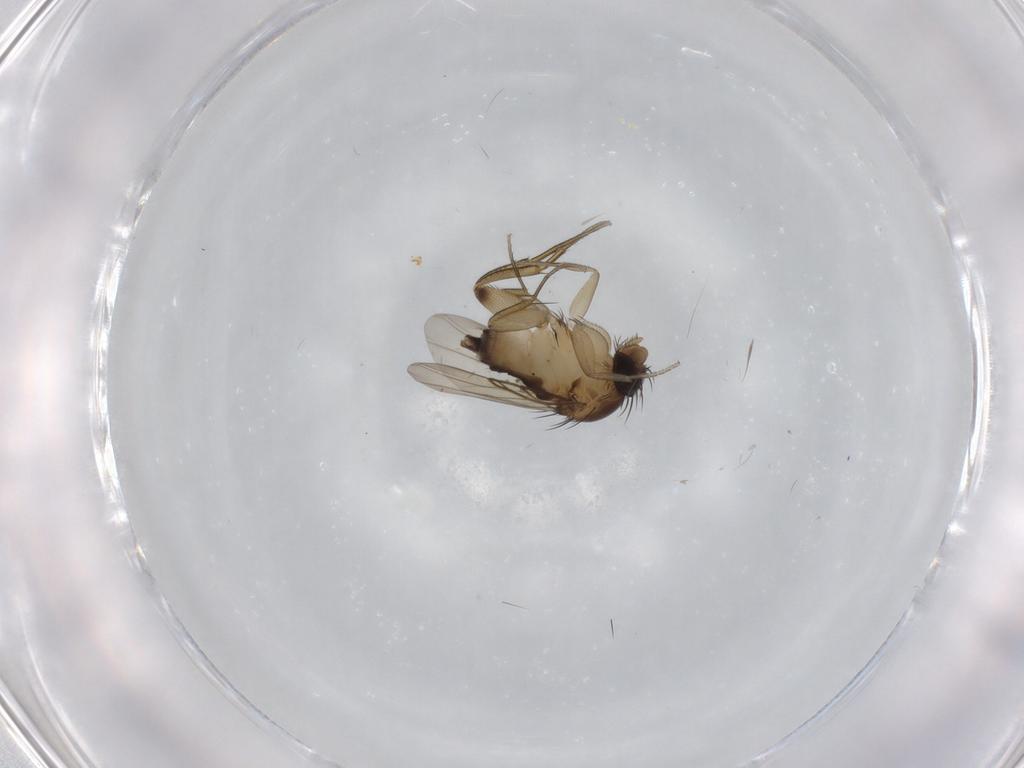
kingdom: Animalia
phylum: Arthropoda
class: Insecta
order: Diptera
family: Phoridae
